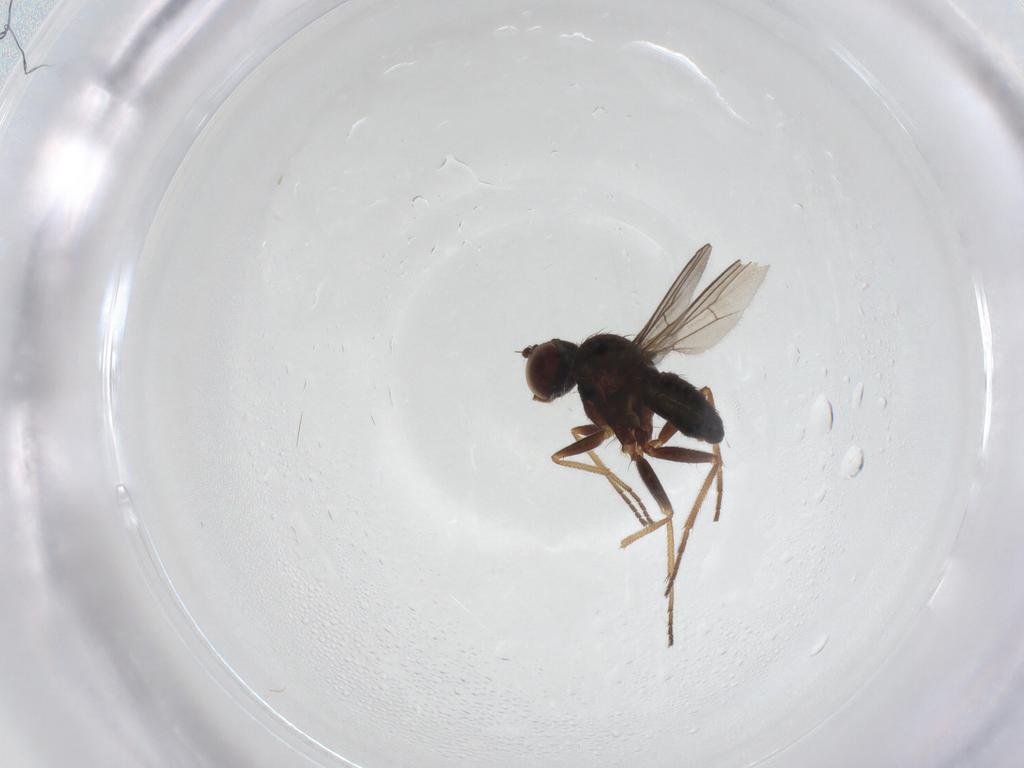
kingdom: Animalia
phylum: Arthropoda
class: Insecta
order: Diptera
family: Dolichopodidae
